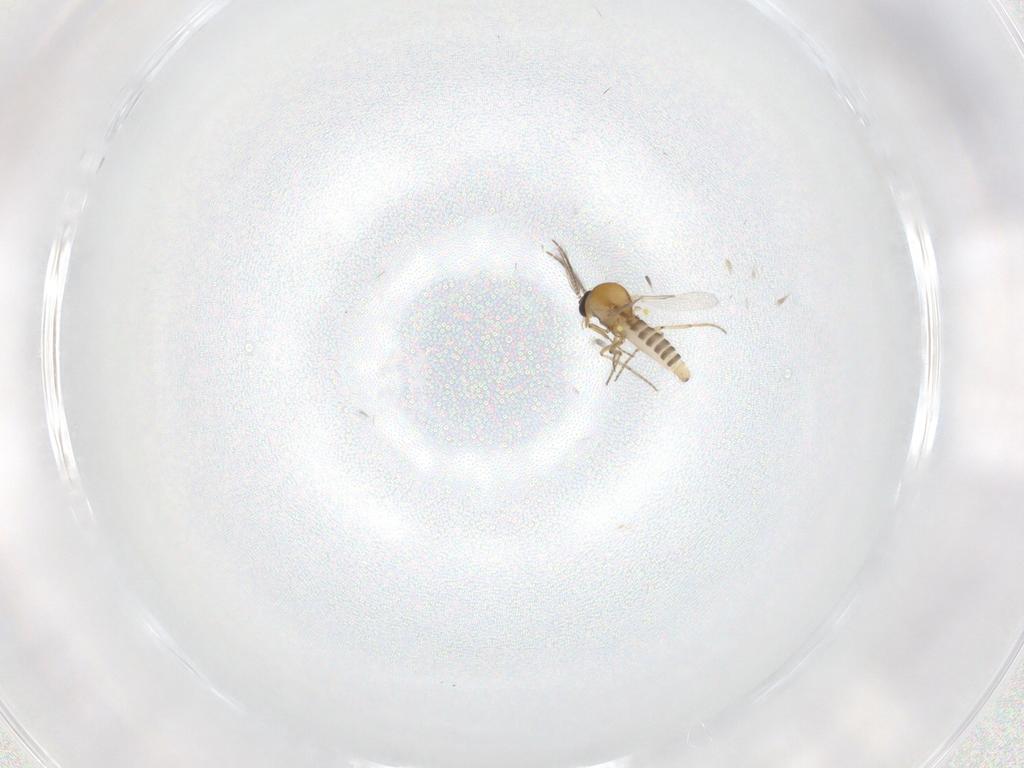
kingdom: Animalia
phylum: Arthropoda
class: Insecta
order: Diptera
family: Ceratopogonidae
